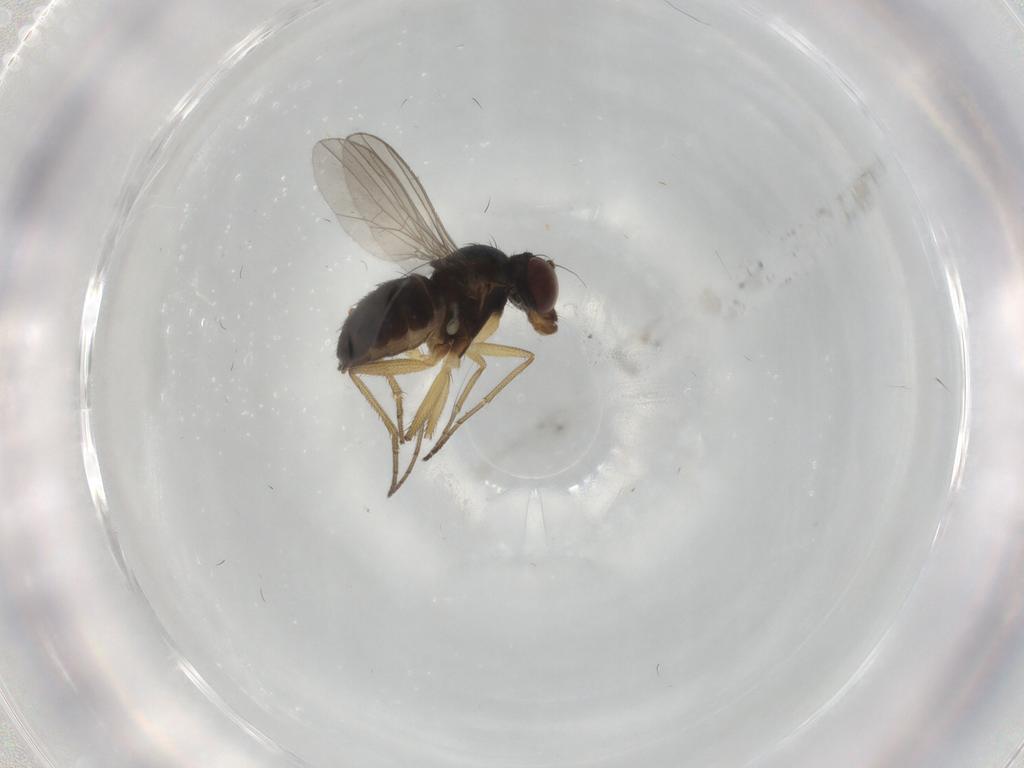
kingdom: Animalia
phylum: Arthropoda
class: Insecta
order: Diptera
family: Dolichopodidae
